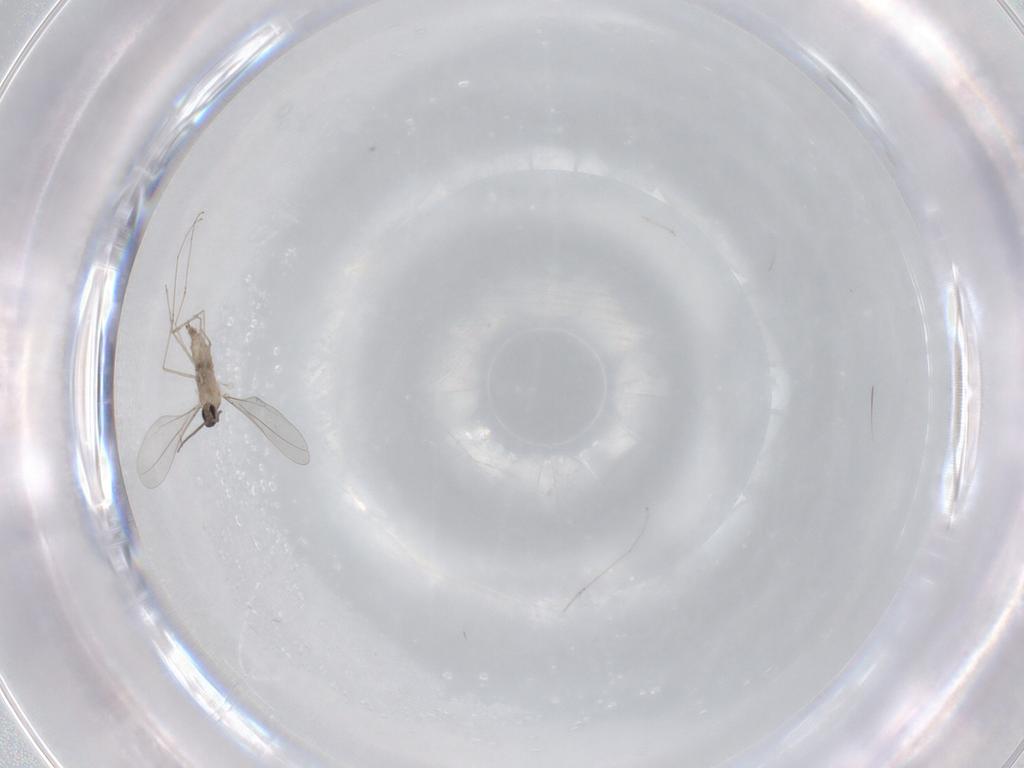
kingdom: Animalia
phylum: Arthropoda
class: Insecta
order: Diptera
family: Cecidomyiidae
